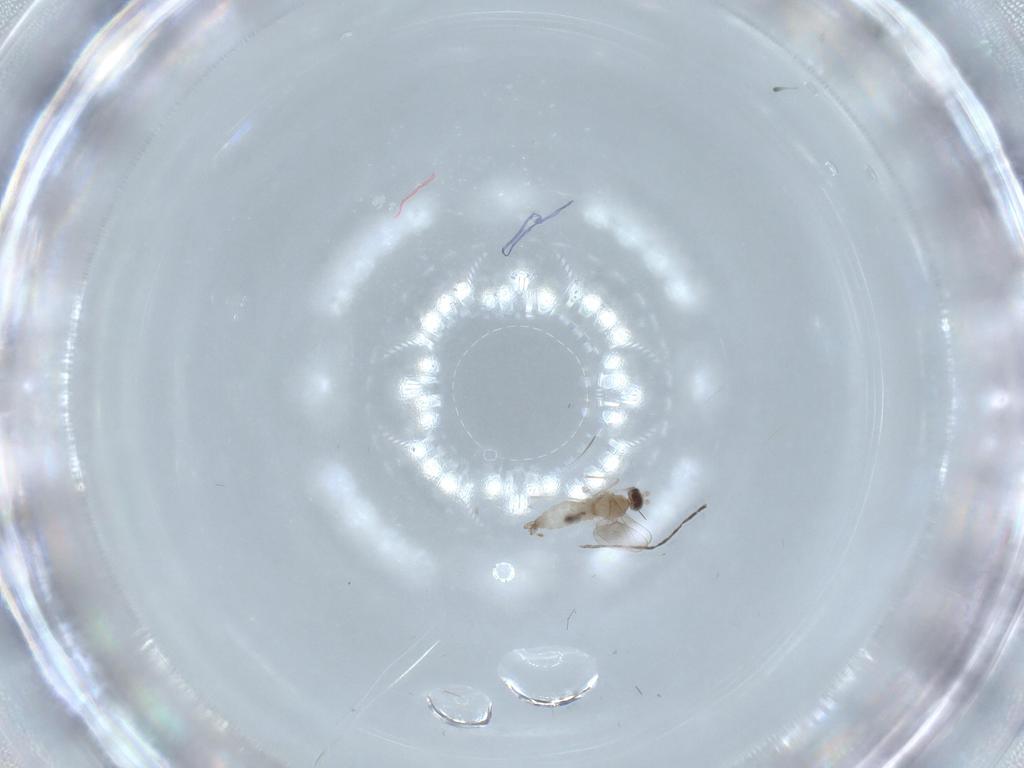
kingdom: Animalia
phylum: Arthropoda
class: Insecta
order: Diptera
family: Cecidomyiidae
